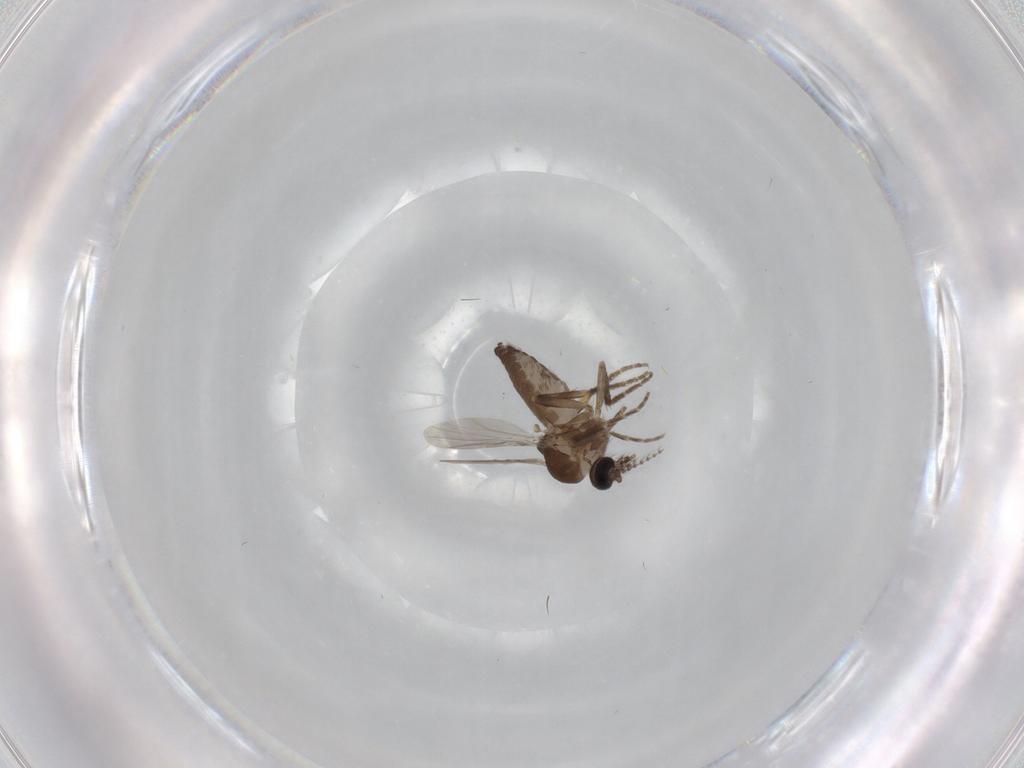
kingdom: Animalia
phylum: Arthropoda
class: Insecta
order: Diptera
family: Ceratopogonidae
